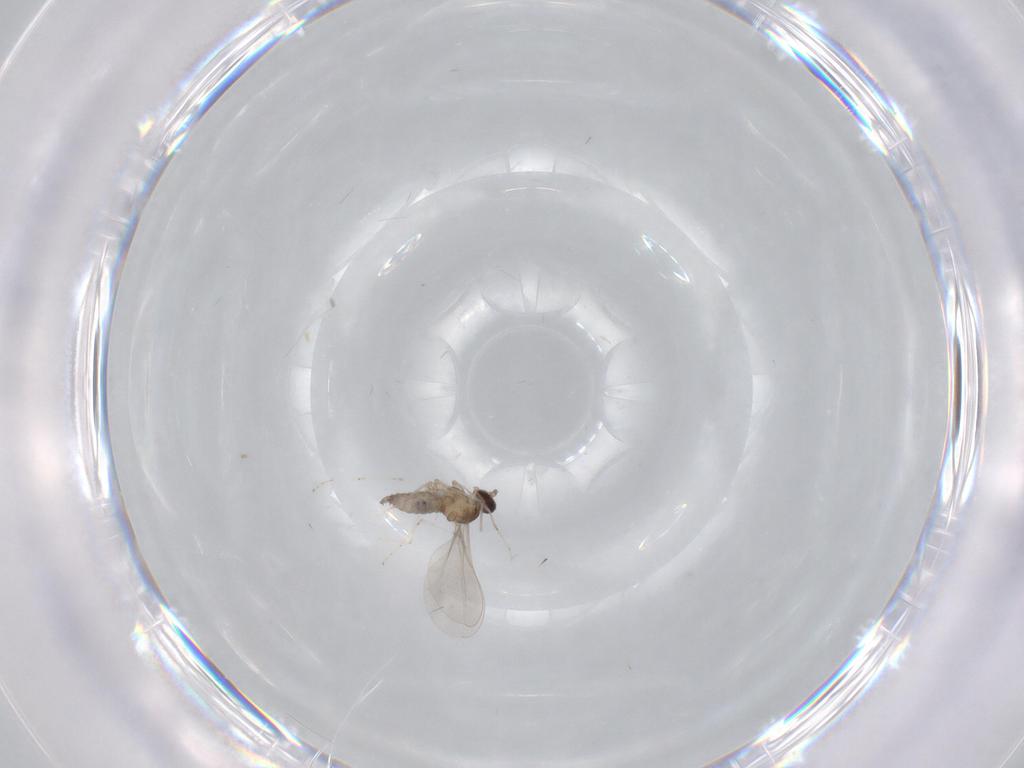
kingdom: Animalia
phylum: Arthropoda
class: Insecta
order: Diptera
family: Cecidomyiidae
